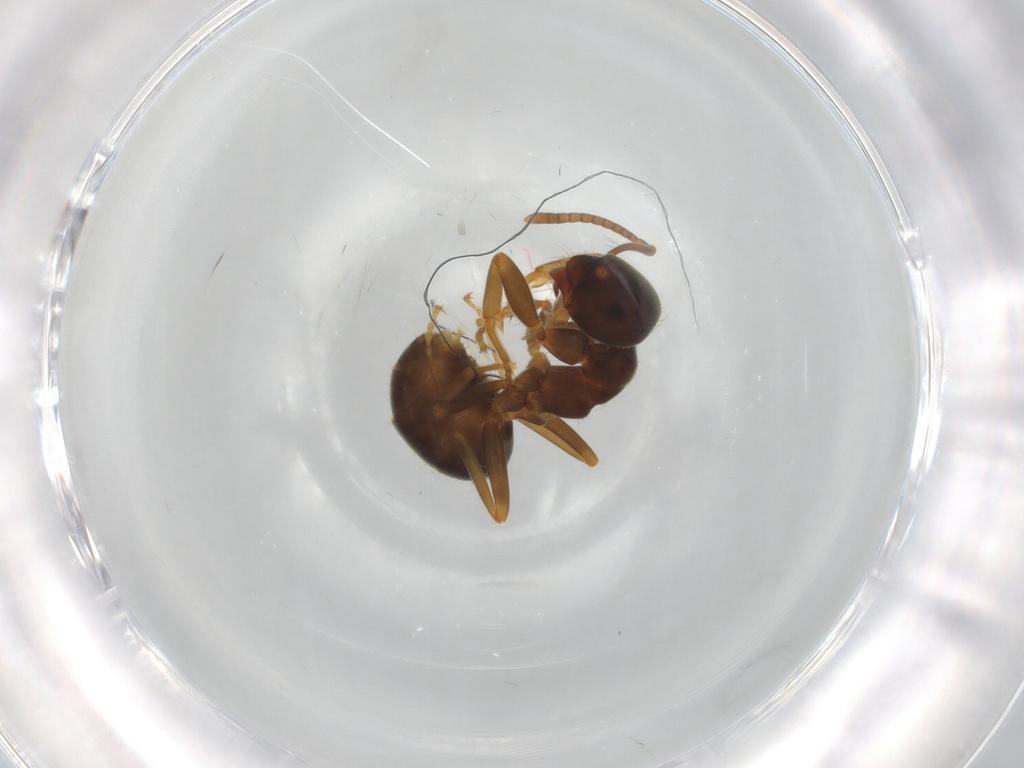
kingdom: Animalia
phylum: Arthropoda
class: Insecta
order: Hymenoptera
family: Formicidae
